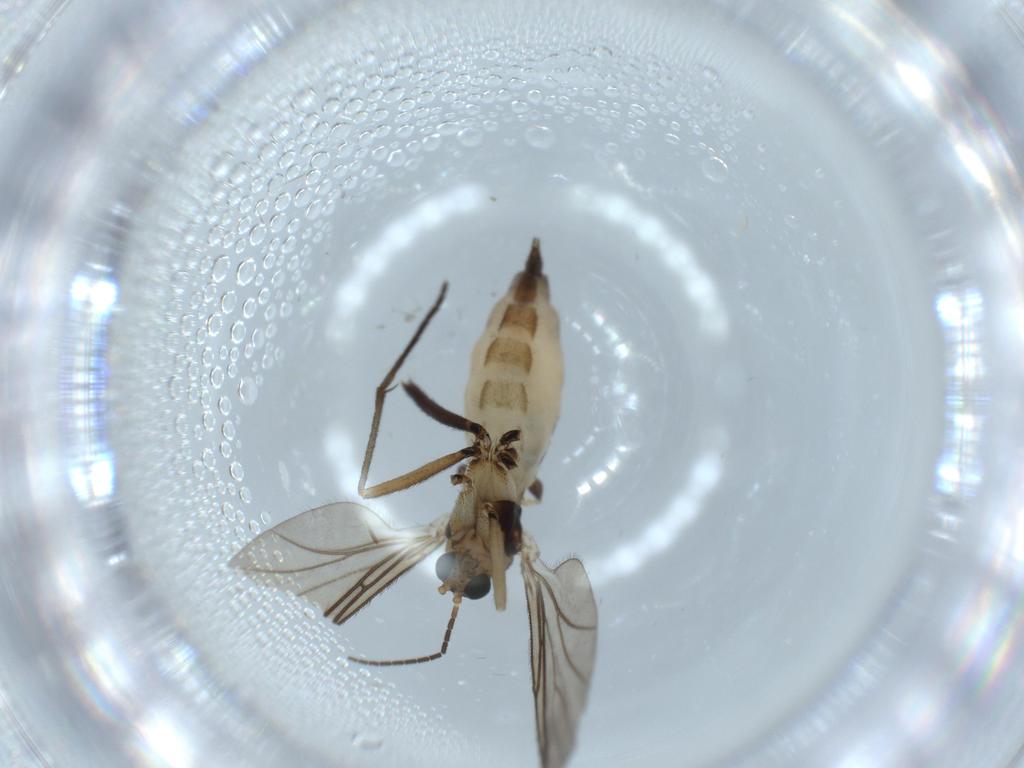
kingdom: Animalia
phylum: Arthropoda
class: Insecta
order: Diptera
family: Sciaridae
